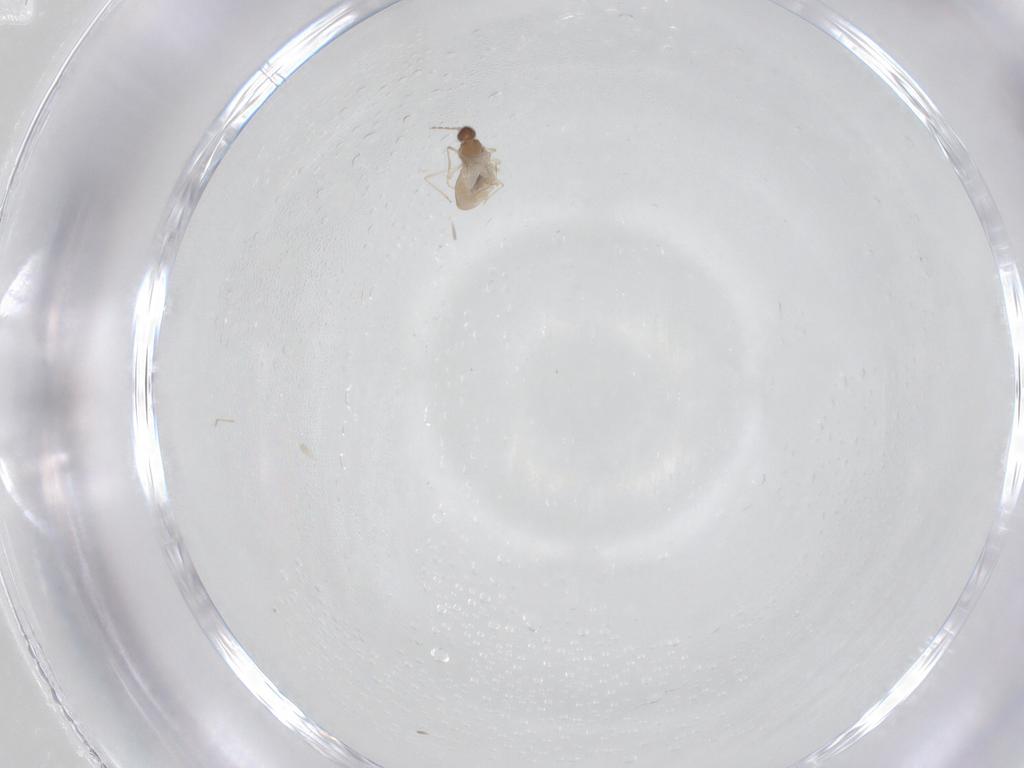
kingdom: Animalia
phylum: Arthropoda
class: Insecta
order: Diptera
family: Cecidomyiidae
